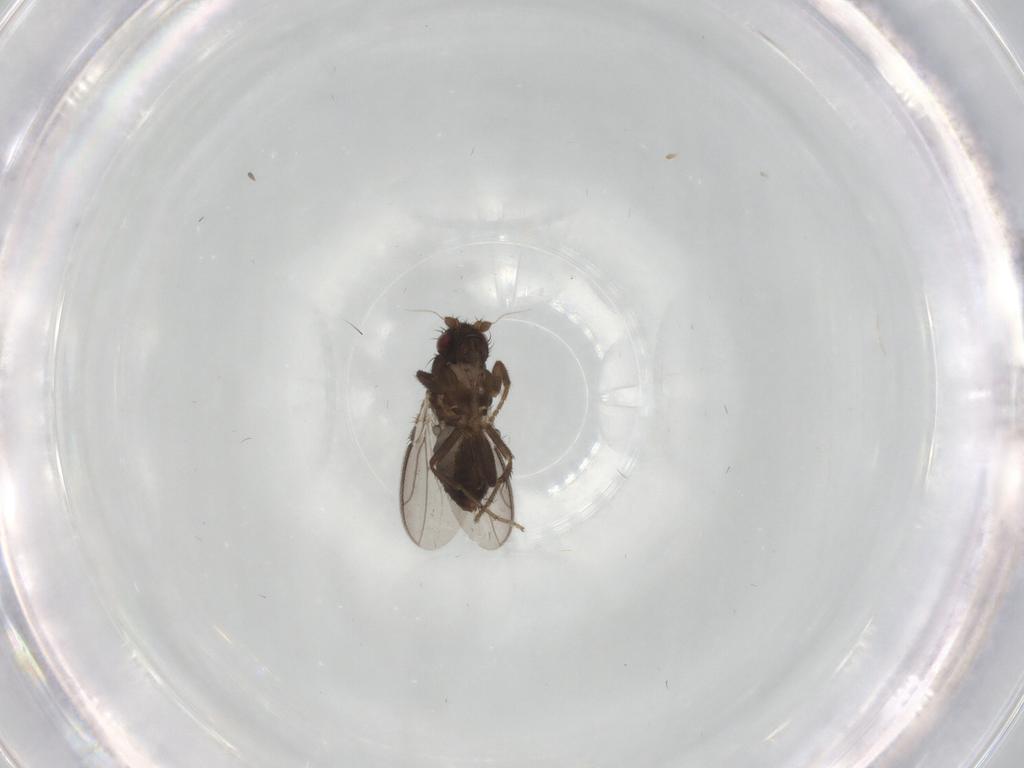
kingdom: Animalia
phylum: Arthropoda
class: Insecta
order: Diptera
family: Sphaeroceridae
